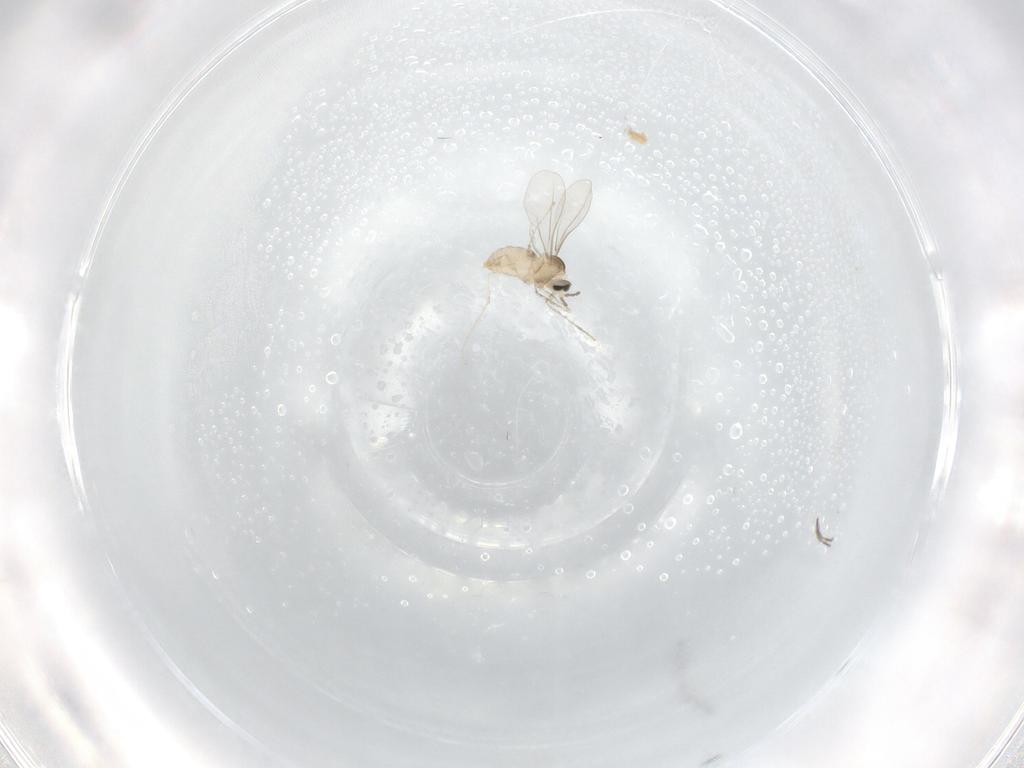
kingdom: Animalia
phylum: Arthropoda
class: Insecta
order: Diptera
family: Cecidomyiidae
